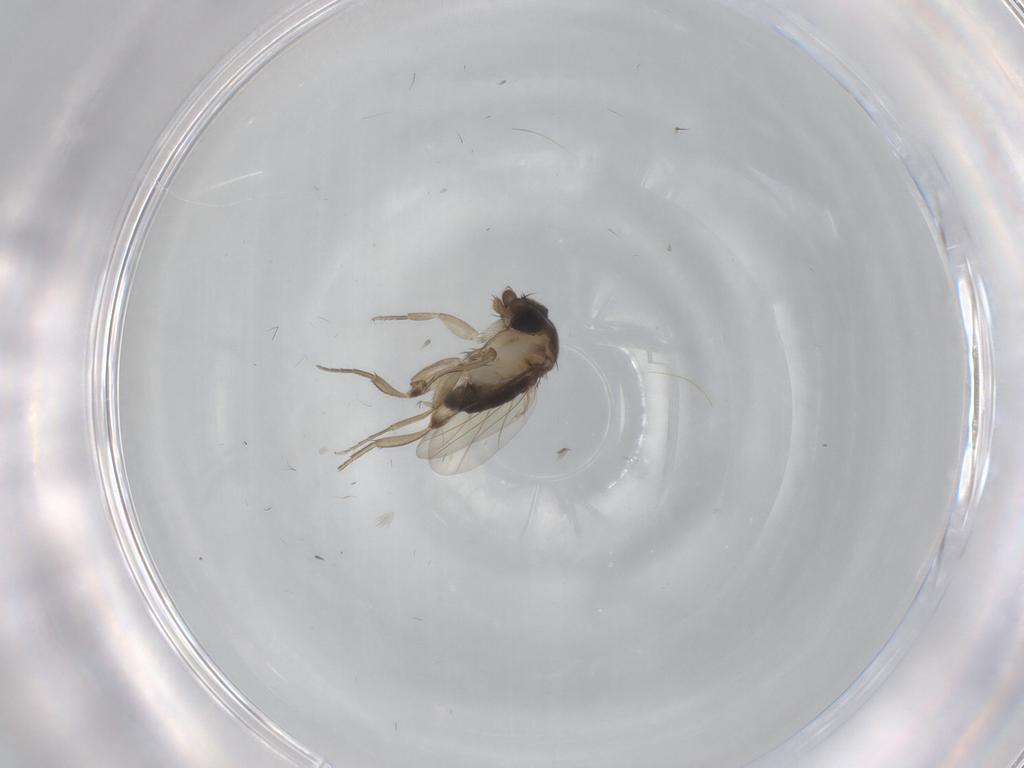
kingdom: Animalia
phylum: Arthropoda
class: Insecta
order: Diptera
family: Phoridae
